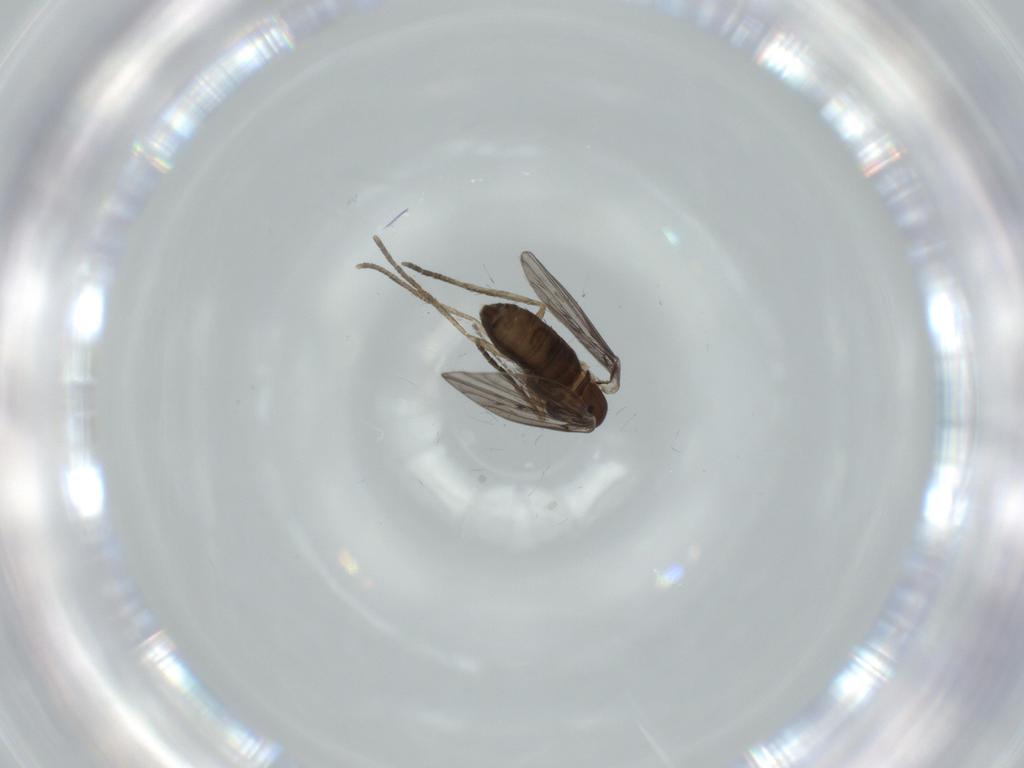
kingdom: Animalia
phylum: Arthropoda
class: Insecta
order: Diptera
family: Psychodidae
